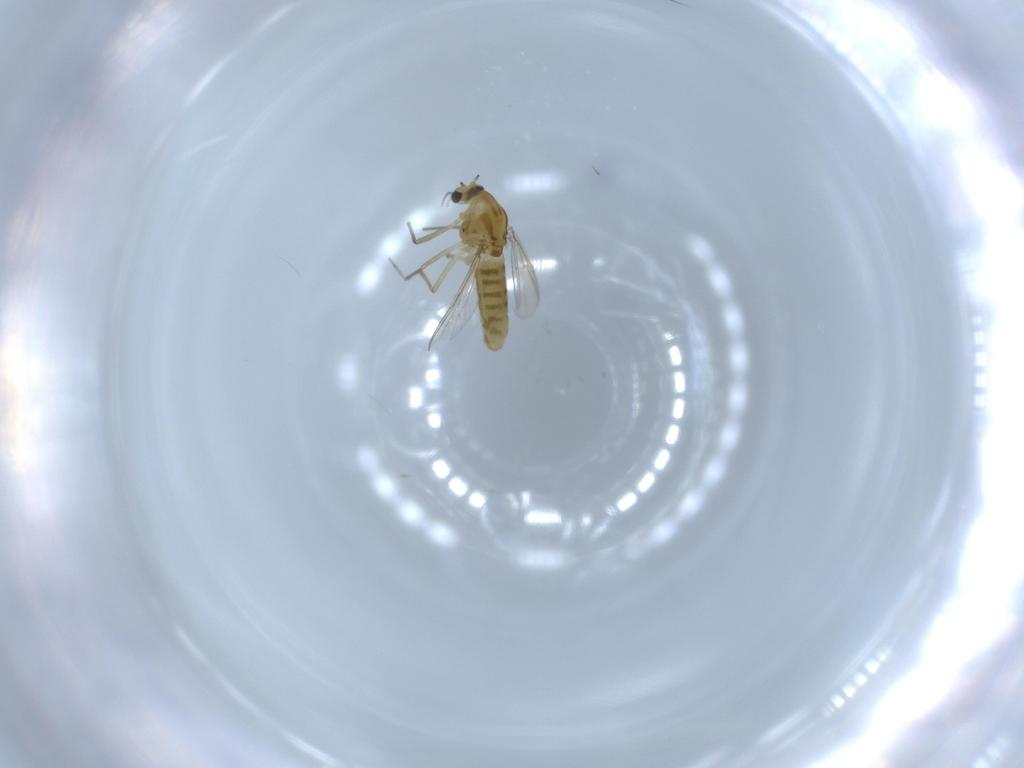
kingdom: Animalia
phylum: Arthropoda
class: Insecta
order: Diptera
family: Chironomidae
